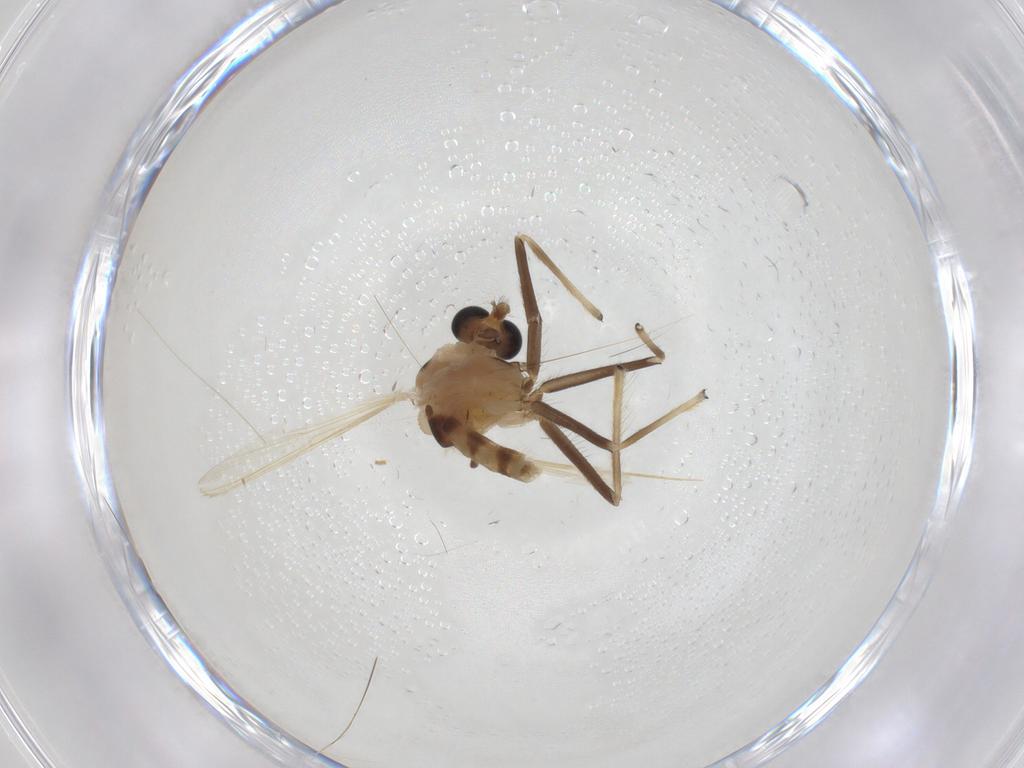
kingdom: Animalia
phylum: Arthropoda
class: Insecta
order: Diptera
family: Chironomidae
